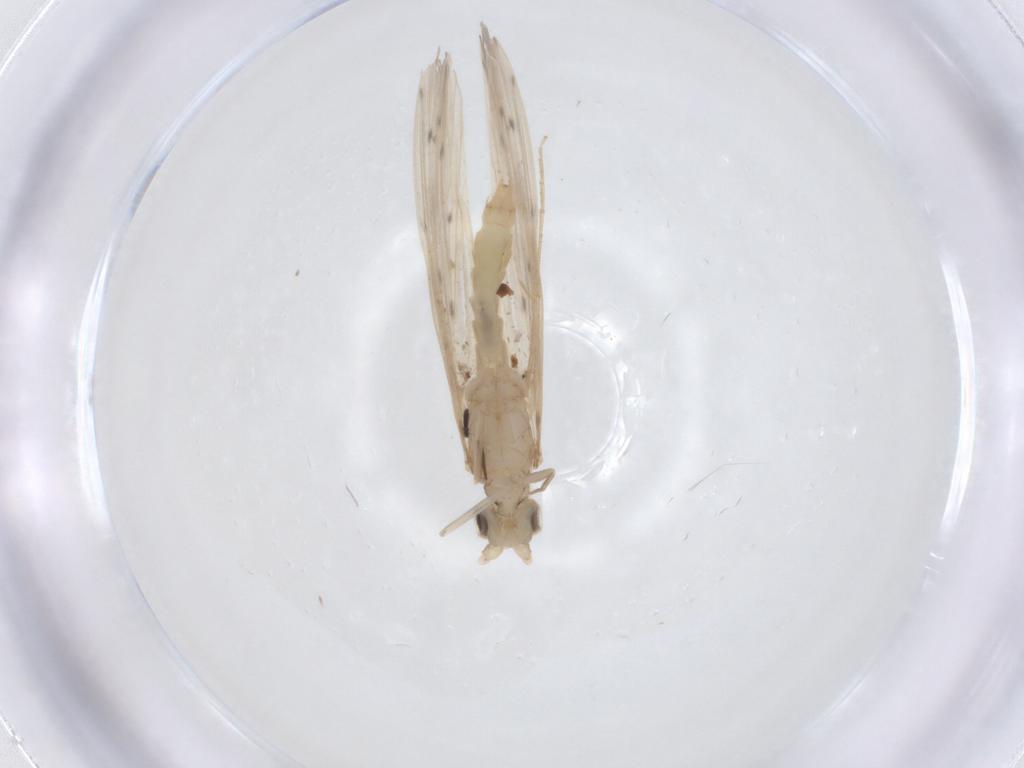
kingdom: Animalia
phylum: Arthropoda
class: Insecta
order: Trichoptera
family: Leptoceridae
